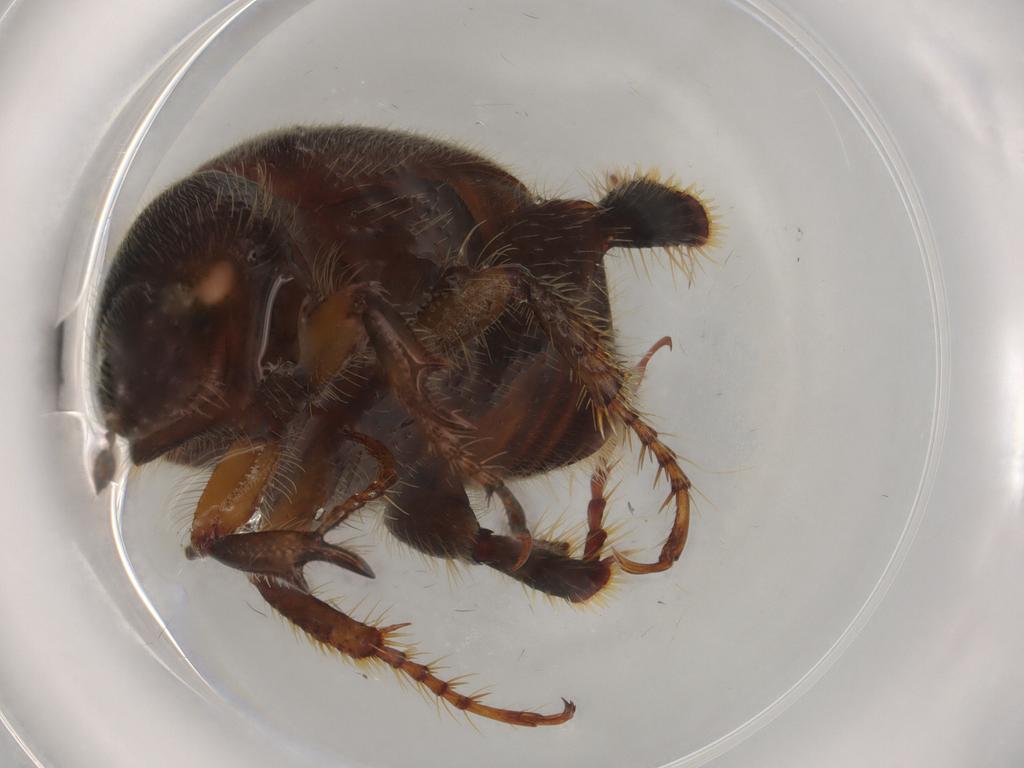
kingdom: Animalia
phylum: Arthropoda
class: Insecta
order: Coleoptera
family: Melolonthidae
